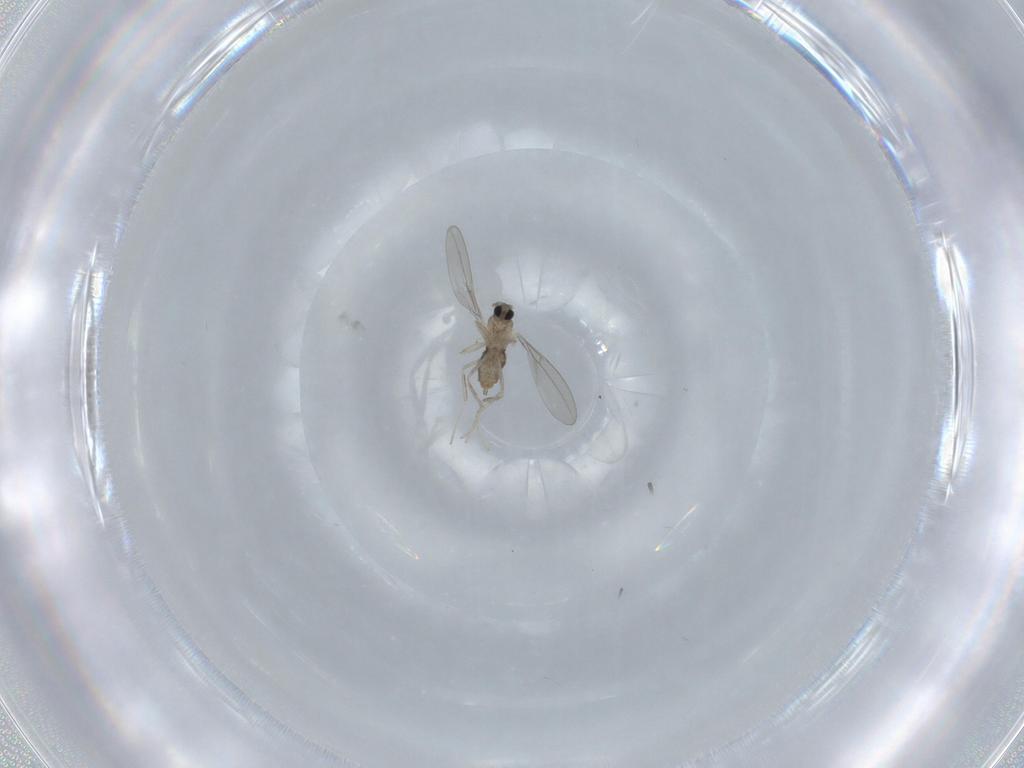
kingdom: Animalia
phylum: Arthropoda
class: Insecta
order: Diptera
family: Cecidomyiidae
